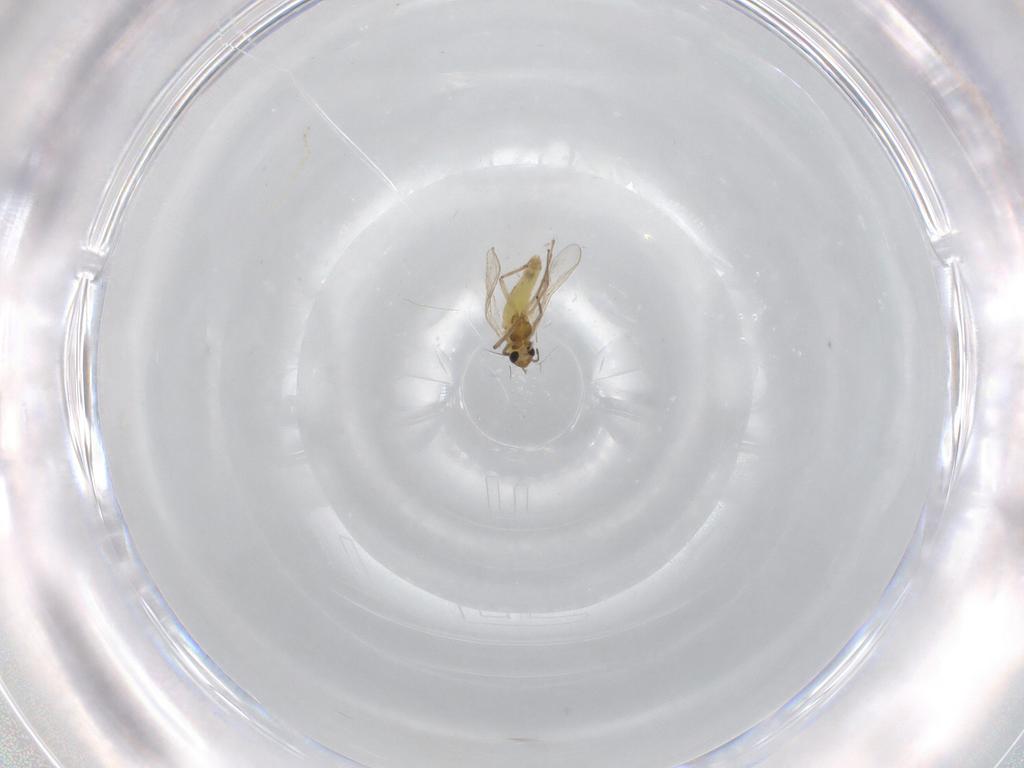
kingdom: Animalia
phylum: Arthropoda
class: Insecta
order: Diptera
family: Chironomidae
